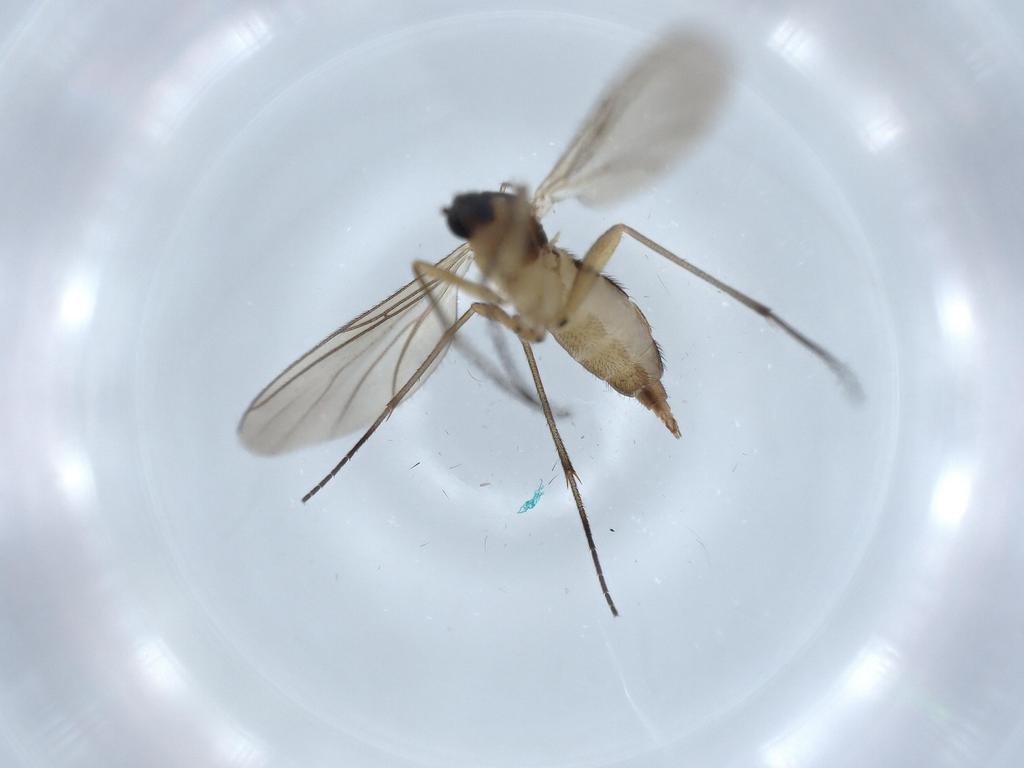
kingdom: Animalia
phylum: Arthropoda
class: Insecta
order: Diptera
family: Sciaridae
